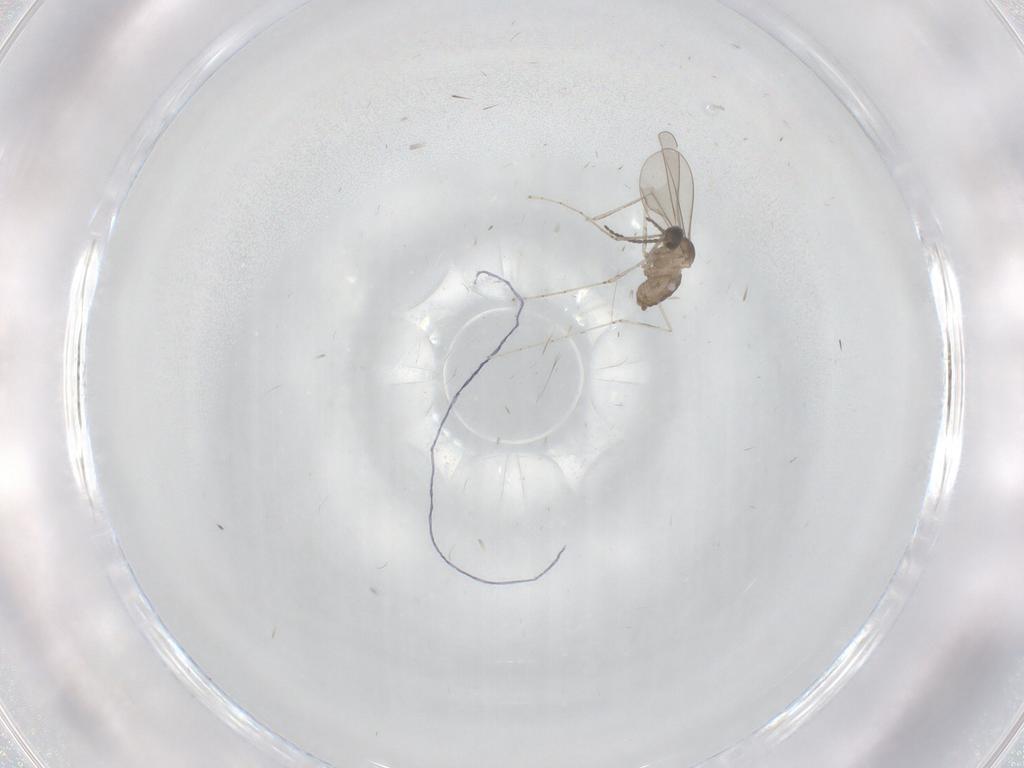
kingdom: Animalia
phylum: Arthropoda
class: Insecta
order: Diptera
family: Cecidomyiidae
